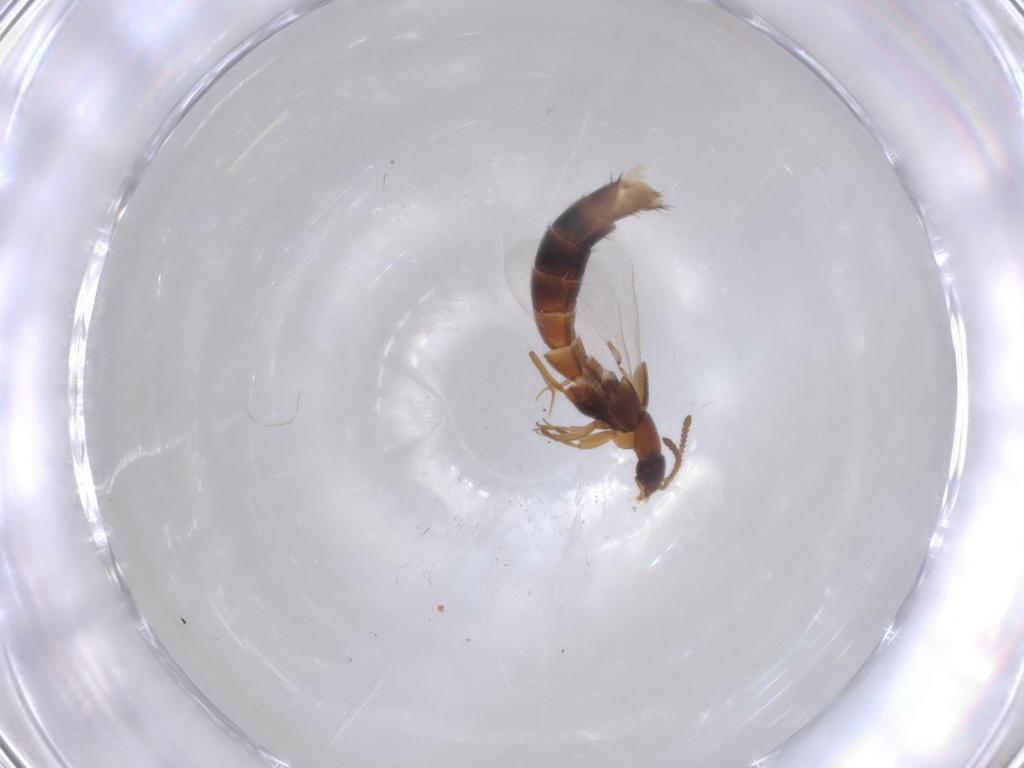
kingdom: Animalia
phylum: Arthropoda
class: Insecta
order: Coleoptera
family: Staphylinidae
